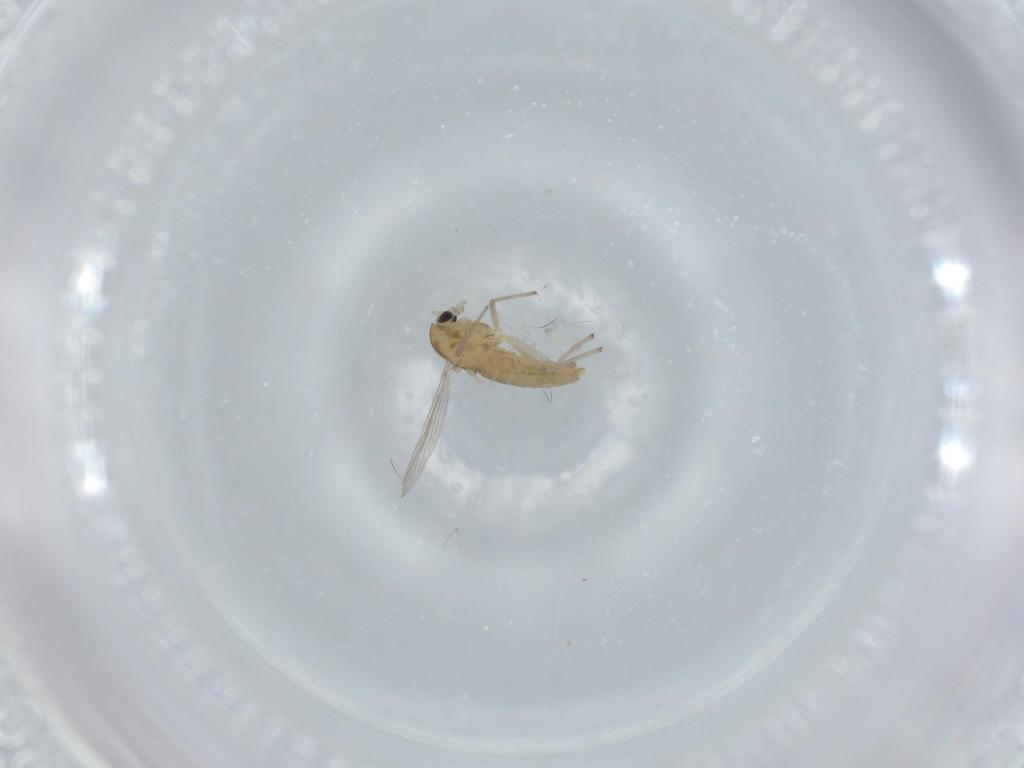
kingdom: Animalia
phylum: Arthropoda
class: Insecta
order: Diptera
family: Chironomidae
